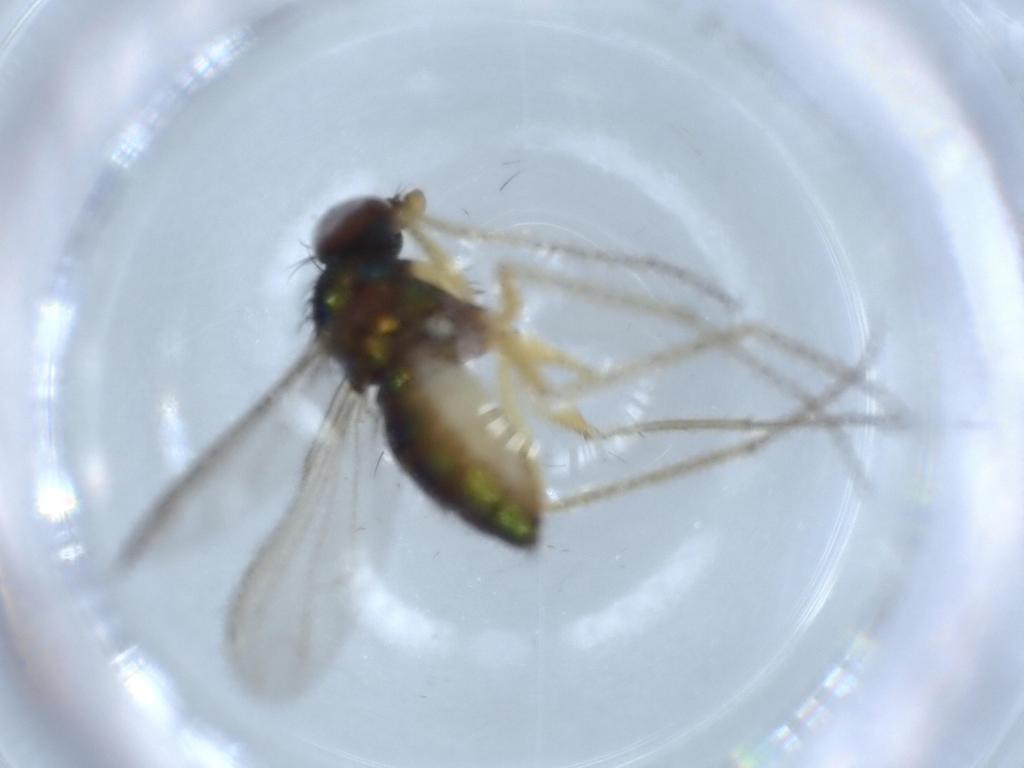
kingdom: Animalia
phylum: Arthropoda
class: Insecta
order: Diptera
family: Dolichopodidae
